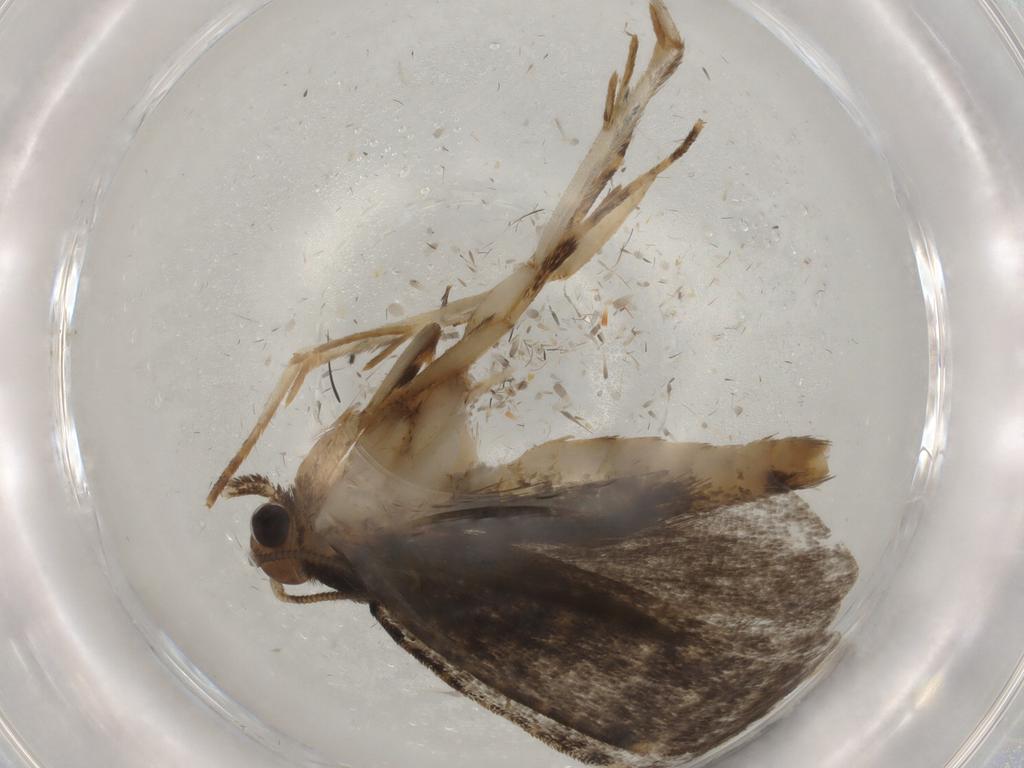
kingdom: Animalia
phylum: Arthropoda
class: Insecta
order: Lepidoptera
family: Tineidae
